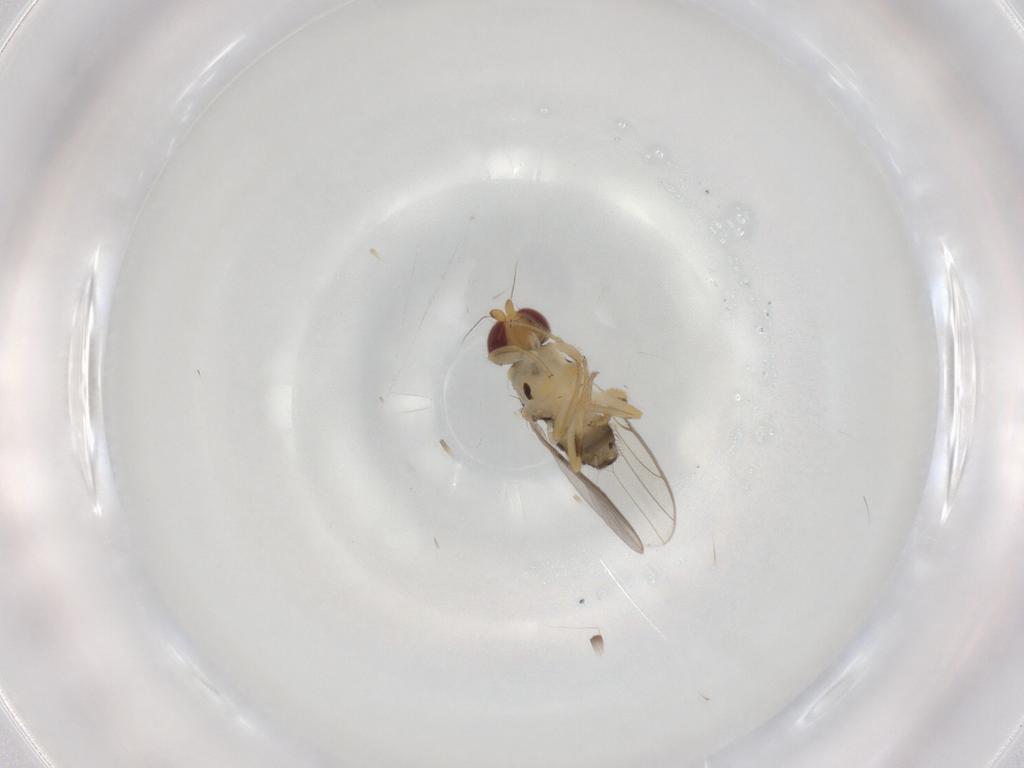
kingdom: Animalia
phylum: Arthropoda
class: Insecta
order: Diptera
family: Chloropidae
